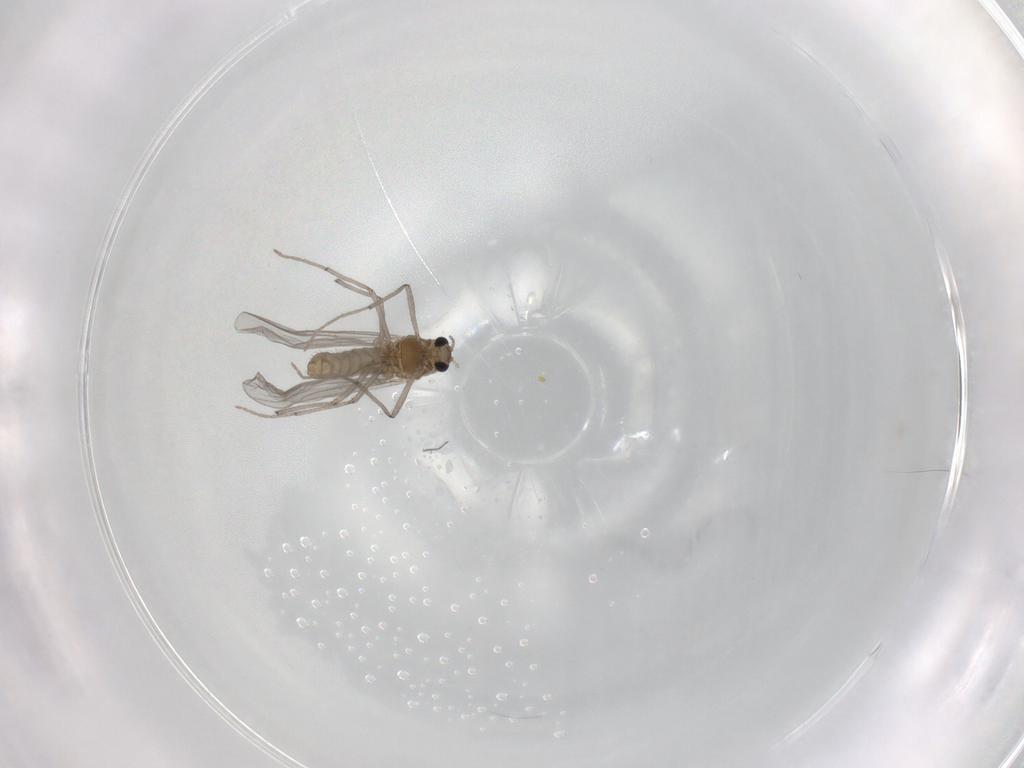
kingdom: Animalia
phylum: Arthropoda
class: Insecta
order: Diptera
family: Chironomidae
